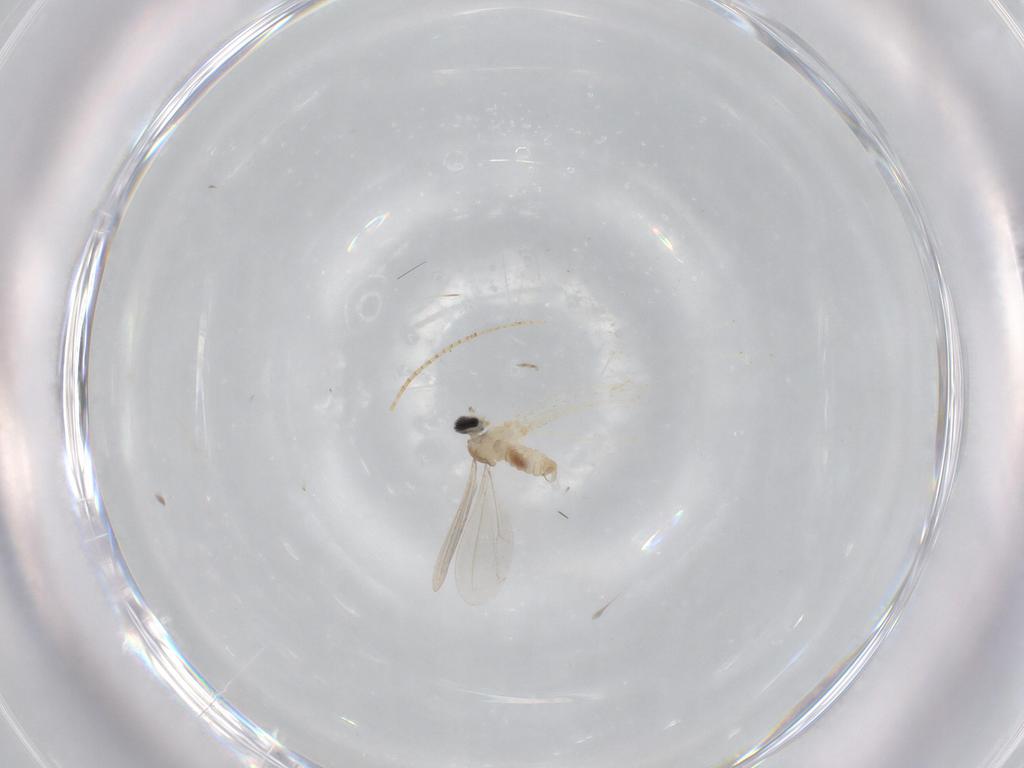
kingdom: Animalia
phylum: Arthropoda
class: Insecta
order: Diptera
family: Cecidomyiidae
